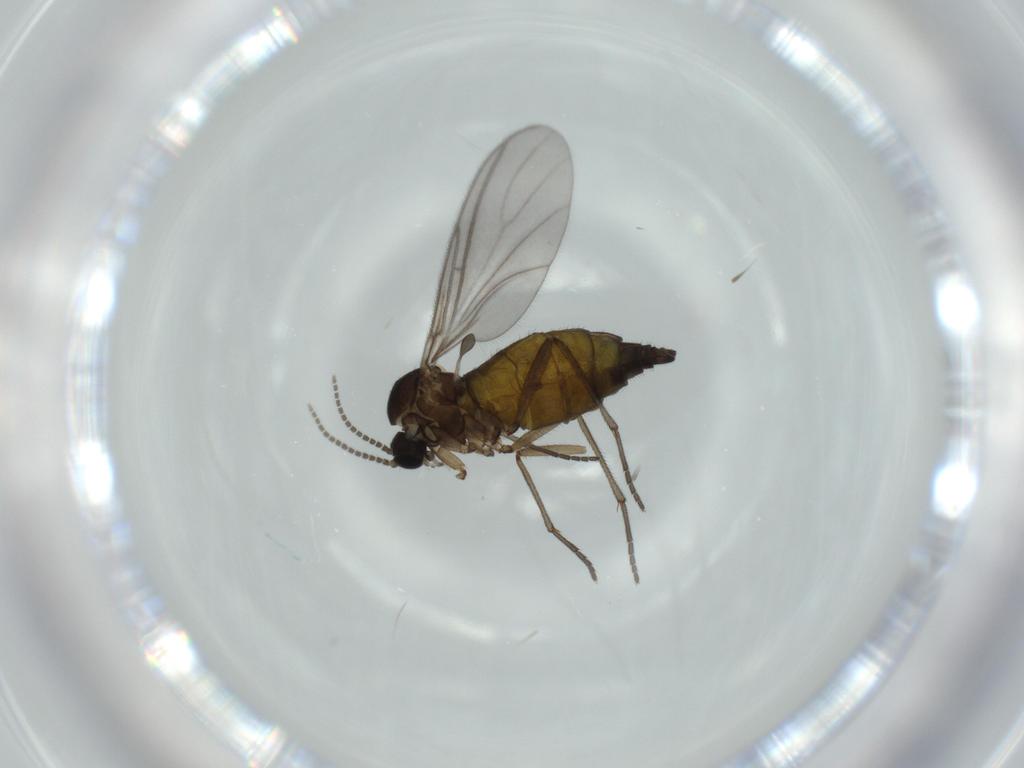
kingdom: Animalia
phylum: Arthropoda
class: Insecta
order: Diptera
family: Sciaridae
